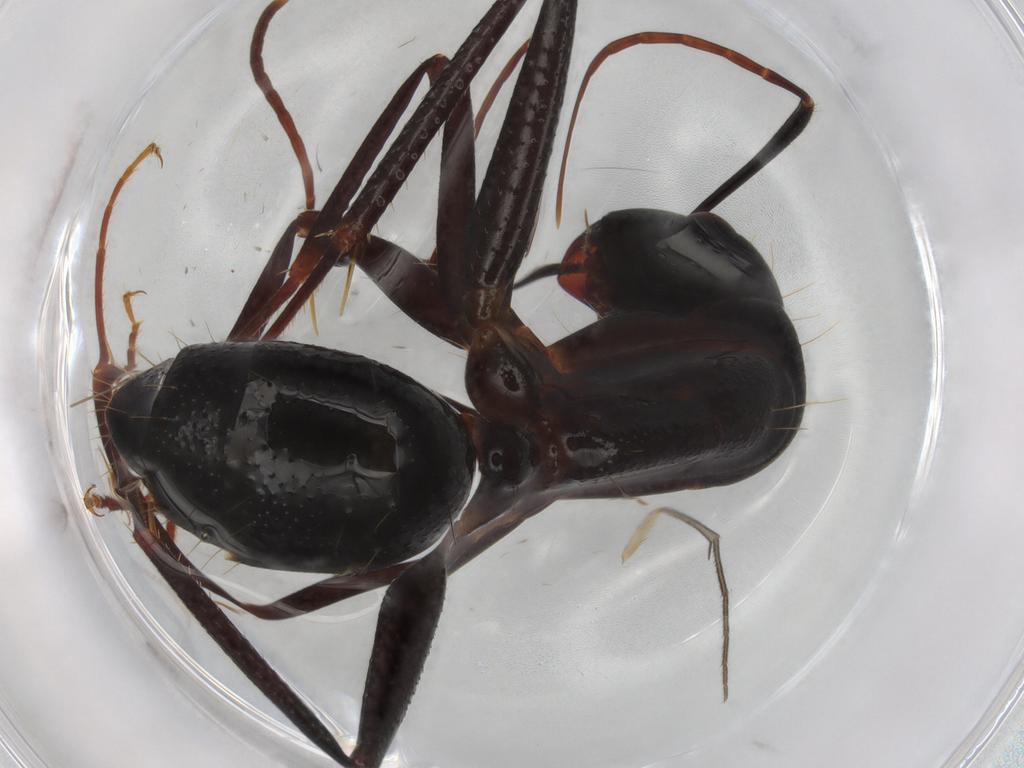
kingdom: Animalia
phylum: Arthropoda
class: Insecta
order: Hymenoptera
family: Formicidae
